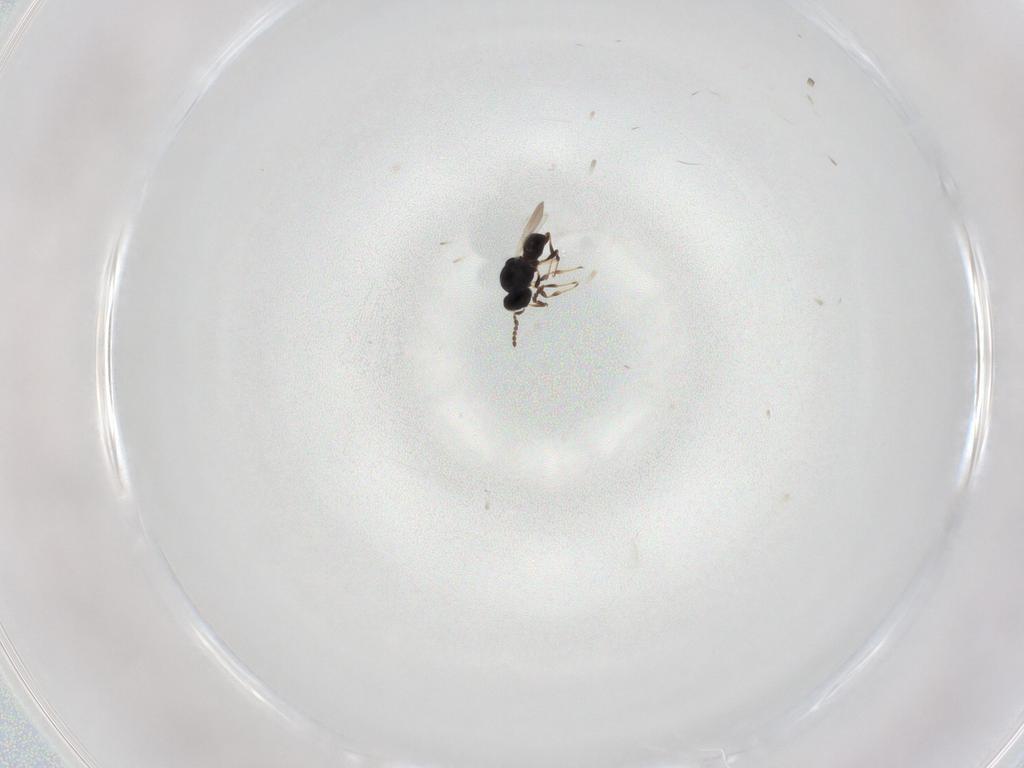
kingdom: Animalia
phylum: Arthropoda
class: Insecta
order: Hymenoptera
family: Platygastridae
